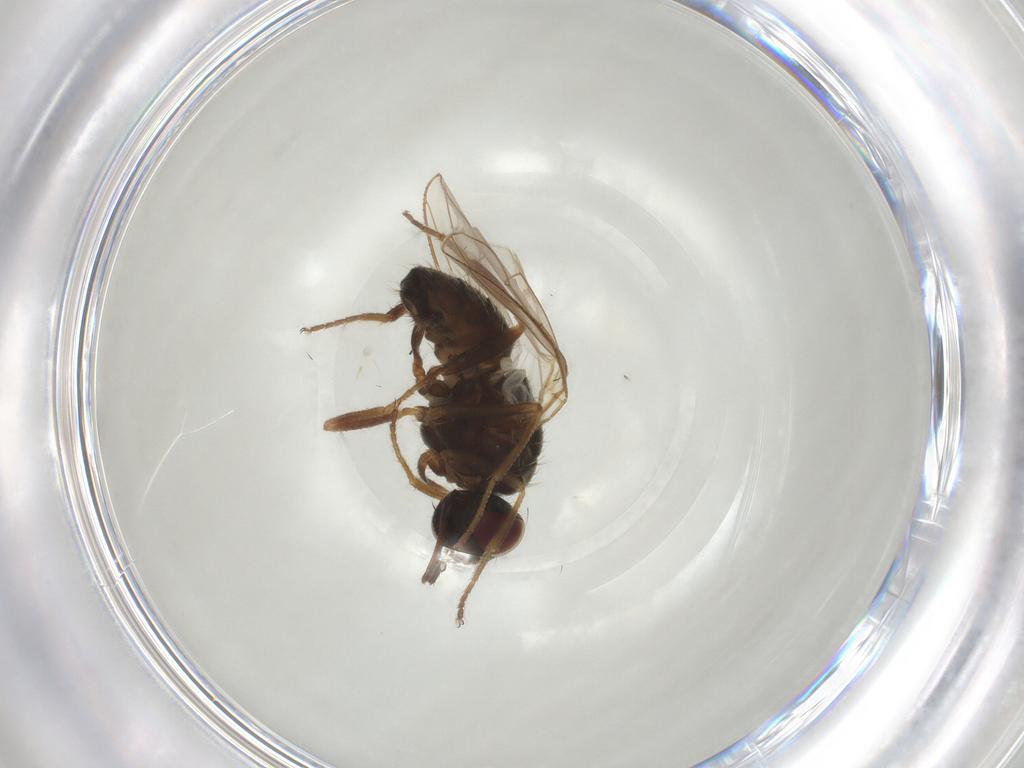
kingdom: Animalia
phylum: Arthropoda
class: Insecta
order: Diptera
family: Muscidae
